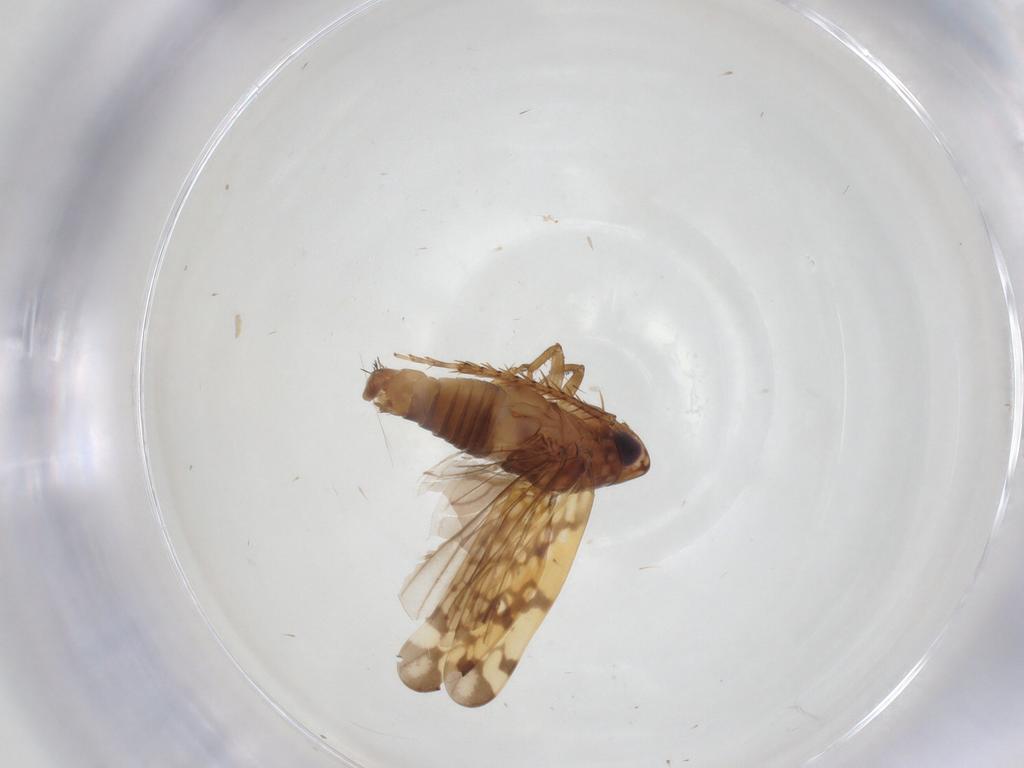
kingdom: Animalia
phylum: Arthropoda
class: Insecta
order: Hemiptera
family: Cicadellidae
